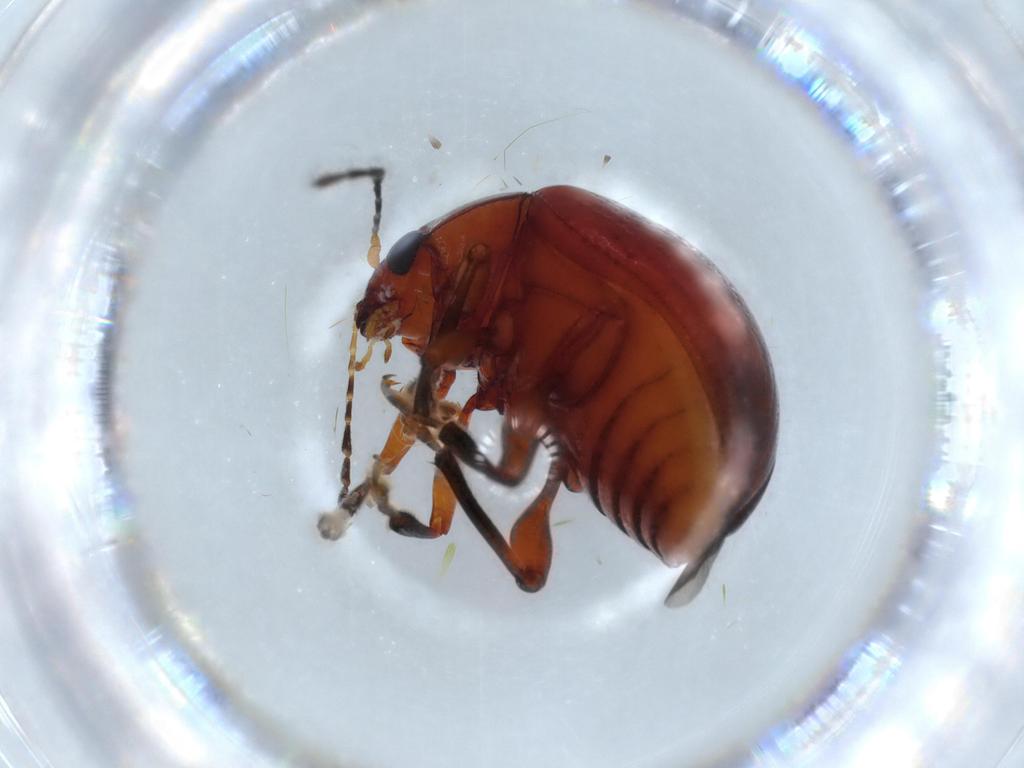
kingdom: Animalia
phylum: Arthropoda
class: Insecta
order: Coleoptera
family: Chrysomelidae
